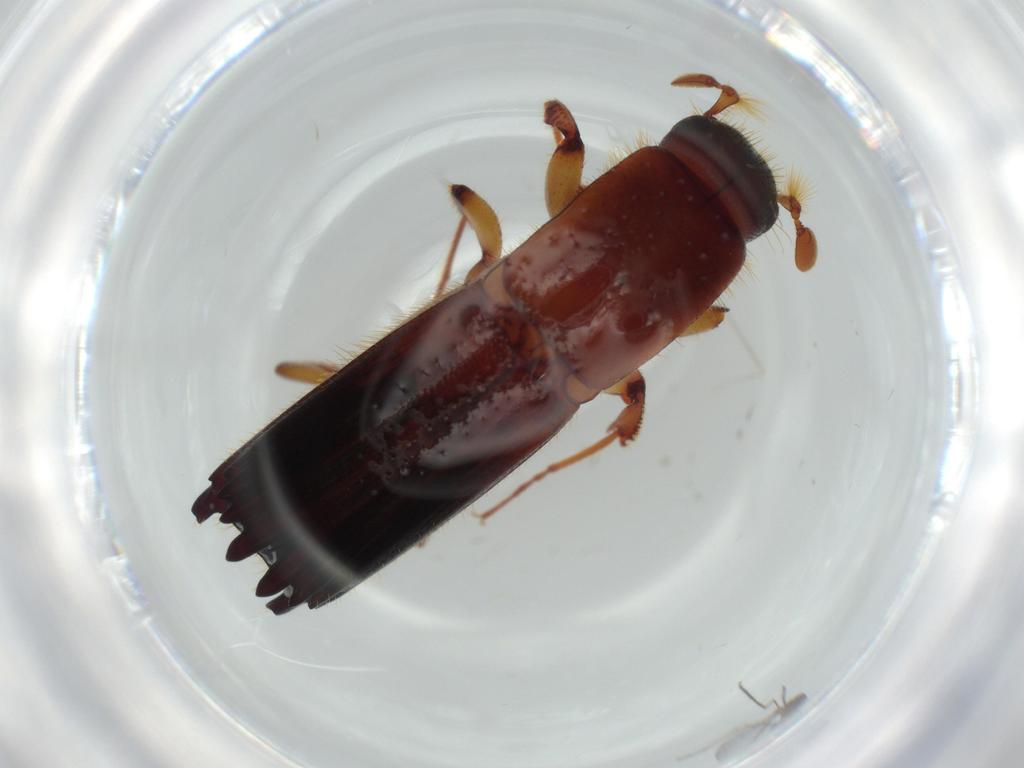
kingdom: Animalia
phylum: Arthropoda
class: Insecta
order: Coleoptera
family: Curculionidae
